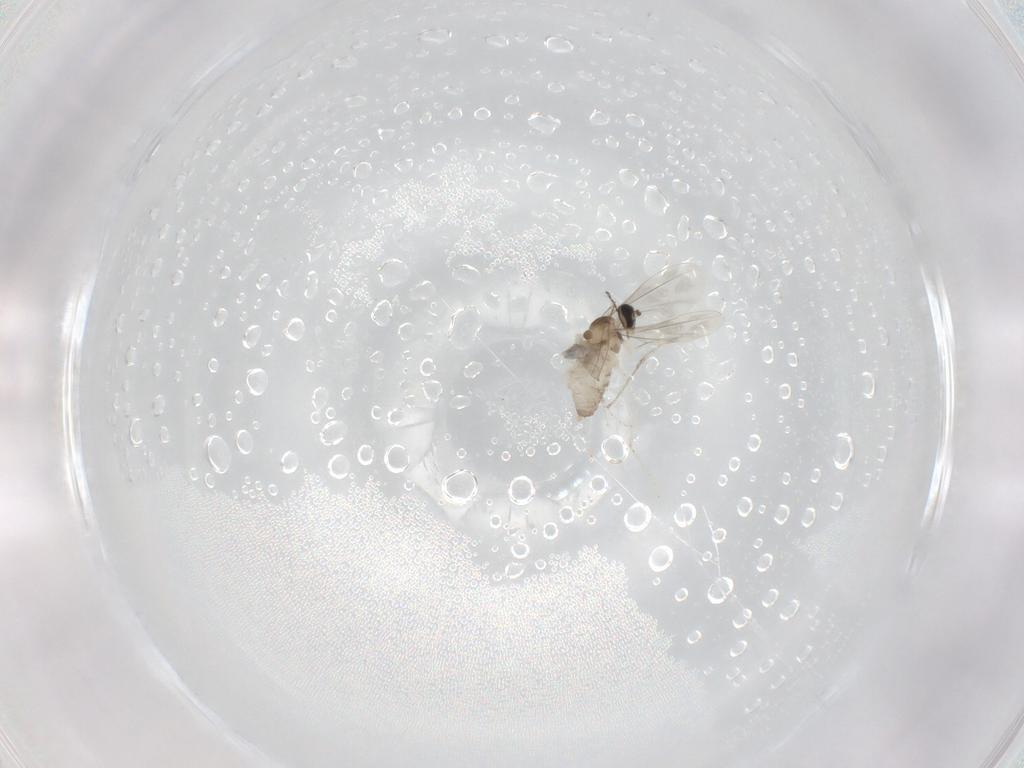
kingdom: Animalia
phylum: Arthropoda
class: Insecta
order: Diptera
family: Cecidomyiidae
